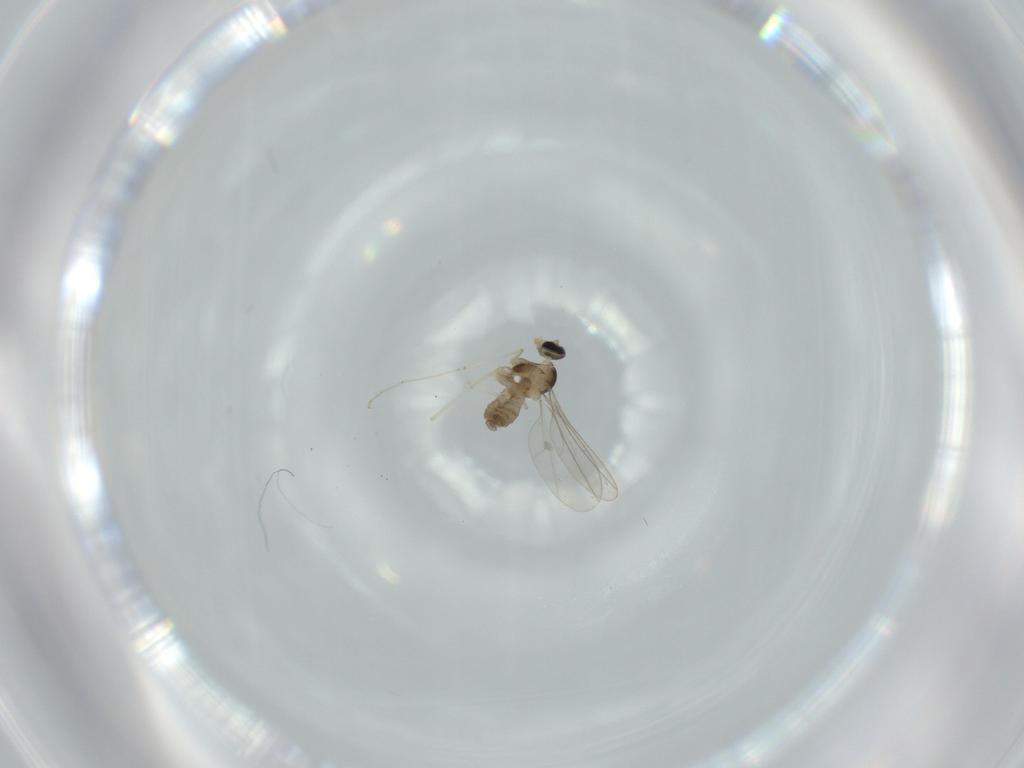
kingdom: Animalia
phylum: Arthropoda
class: Insecta
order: Diptera
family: Cecidomyiidae
